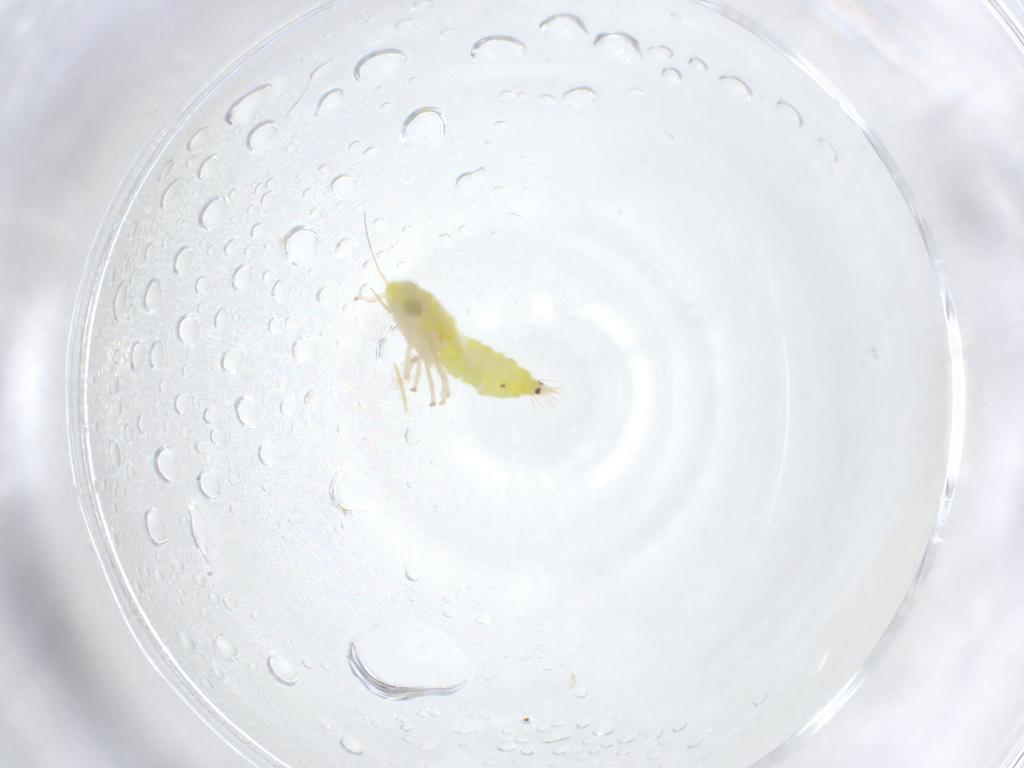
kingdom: Animalia
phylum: Arthropoda
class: Insecta
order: Hemiptera
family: Cicadellidae
